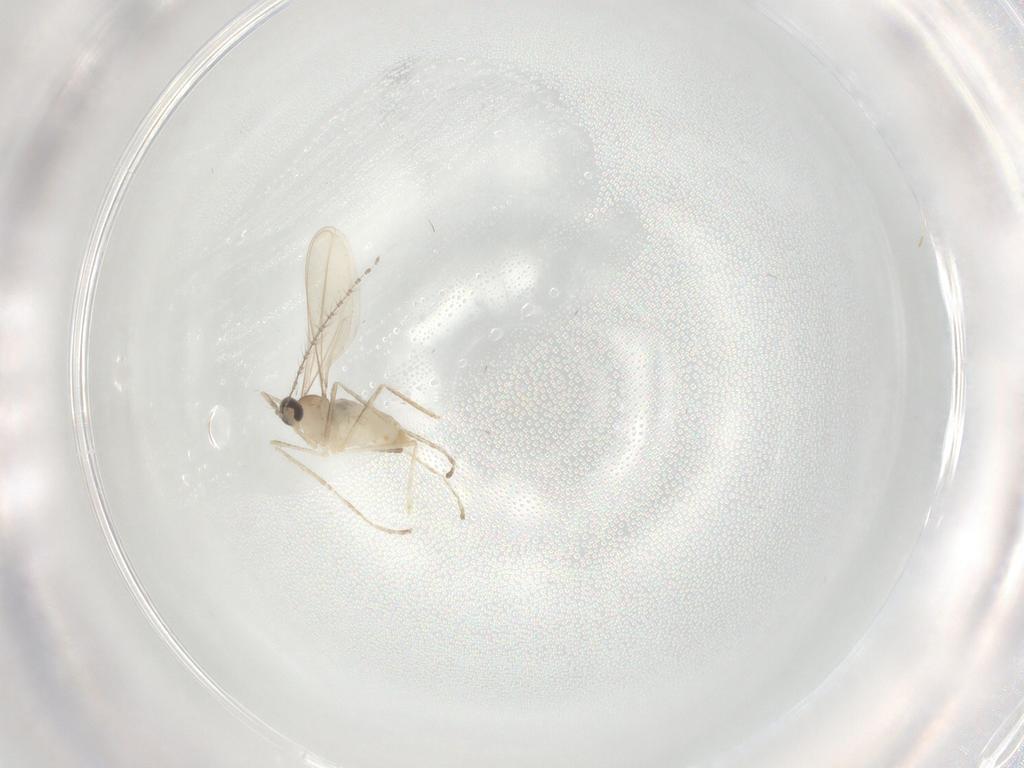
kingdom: Animalia
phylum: Arthropoda
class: Insecta
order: Diptera
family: Cecidomyiidae
